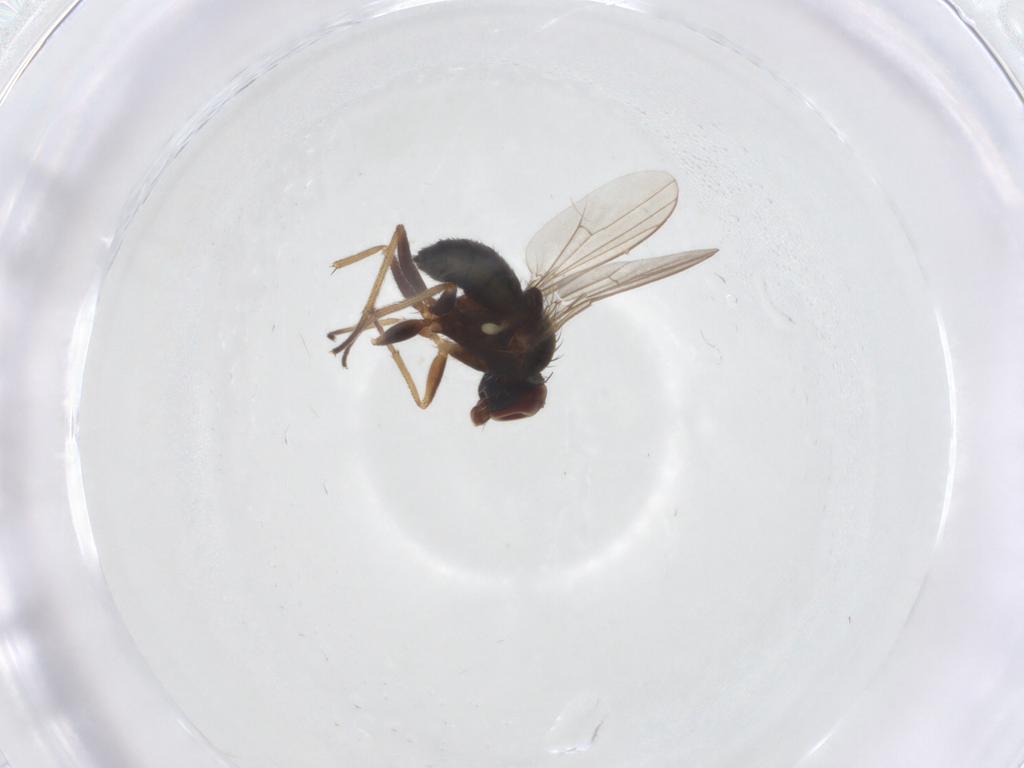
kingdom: Animalia
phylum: Arthropoda
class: Insecta
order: Diptera
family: Dolichopodidae
